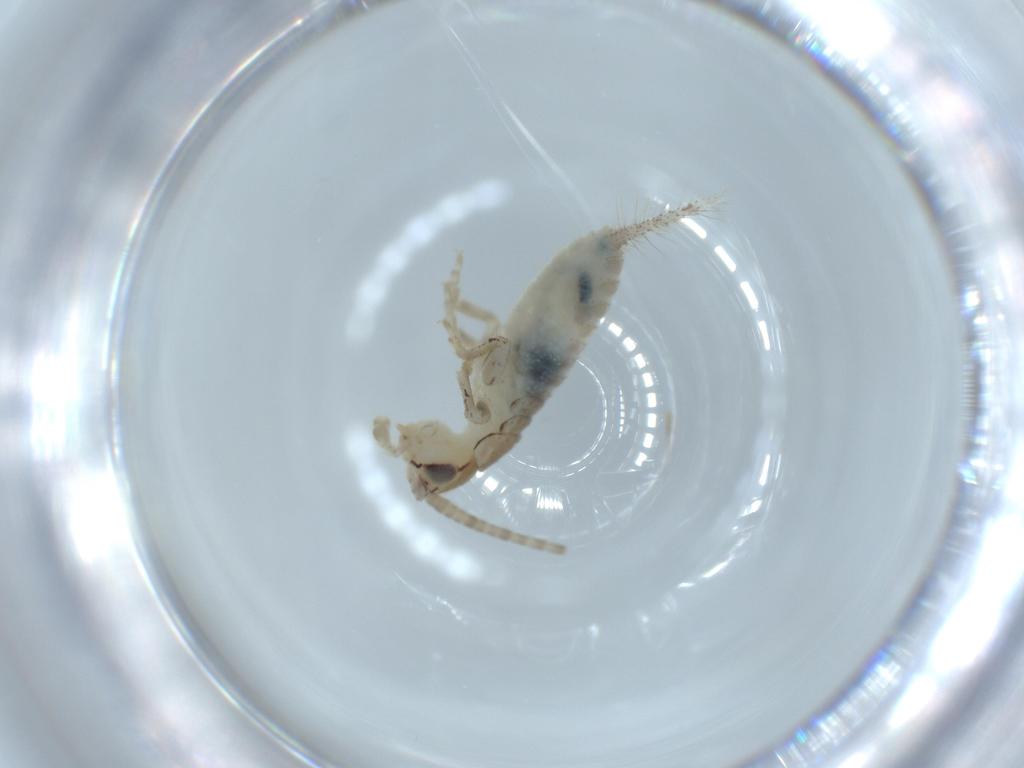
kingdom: Animalia
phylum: Arthropoda
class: Insecta
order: Orthoptera
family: Gryllidae
